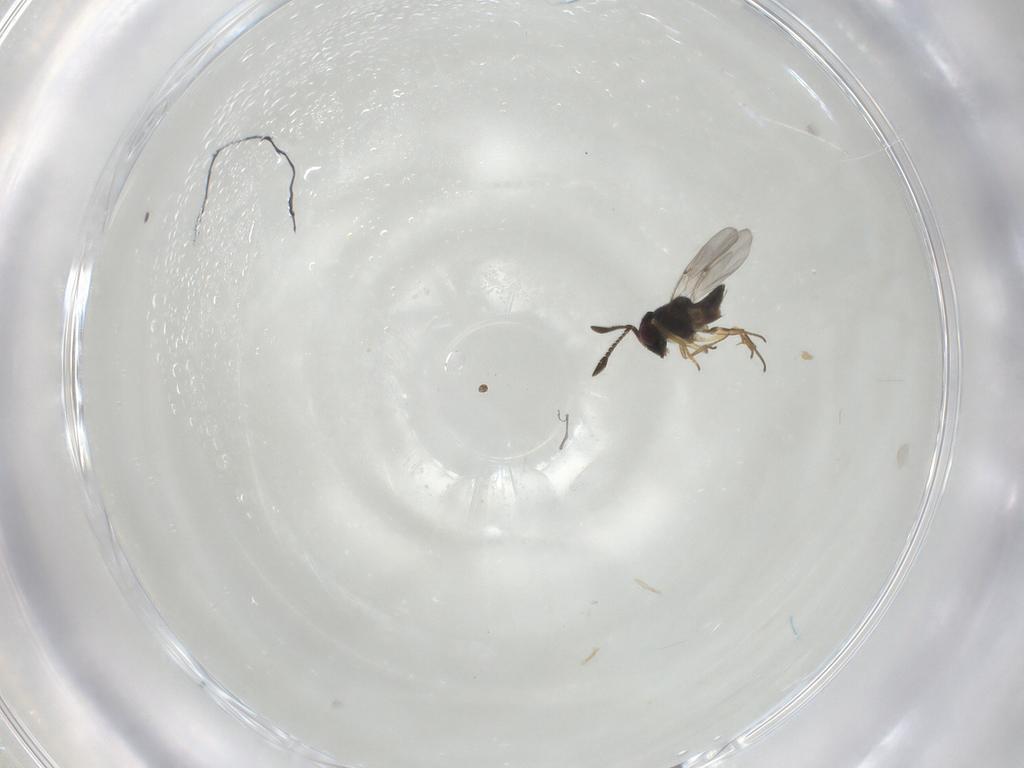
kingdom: Animalia
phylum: Arthropoda
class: Insecta
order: Hymenoptera
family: Scelionidae
